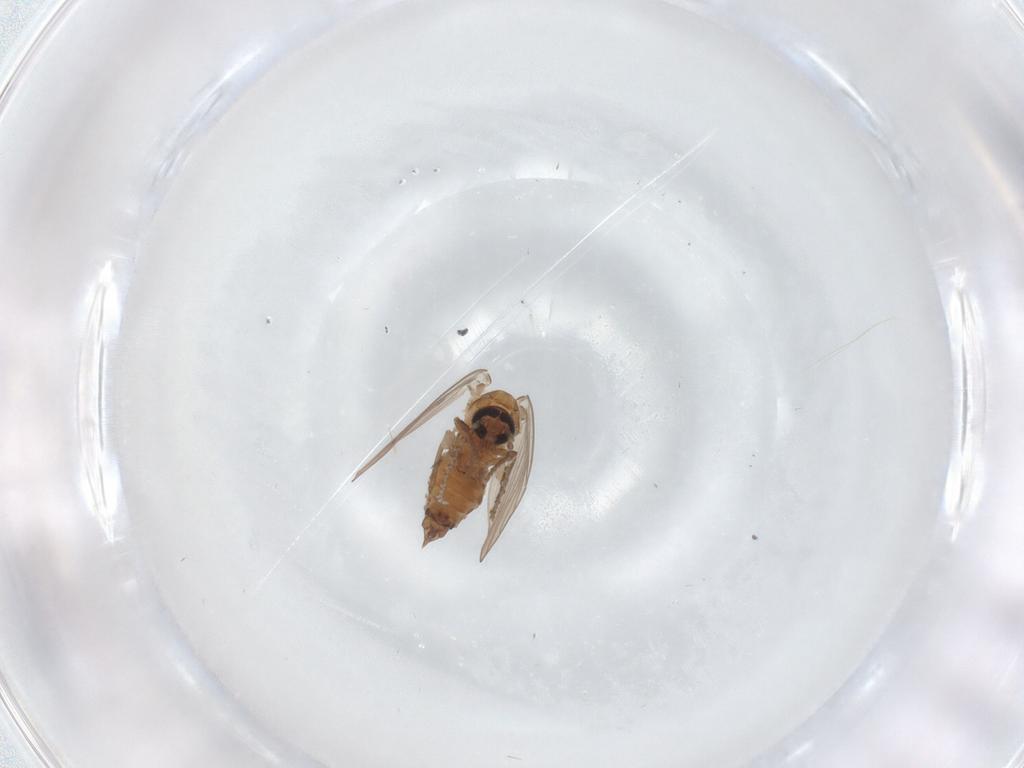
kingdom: Animalia
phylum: Arthropoda
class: Insecta
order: Diptera
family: Psychodidae
